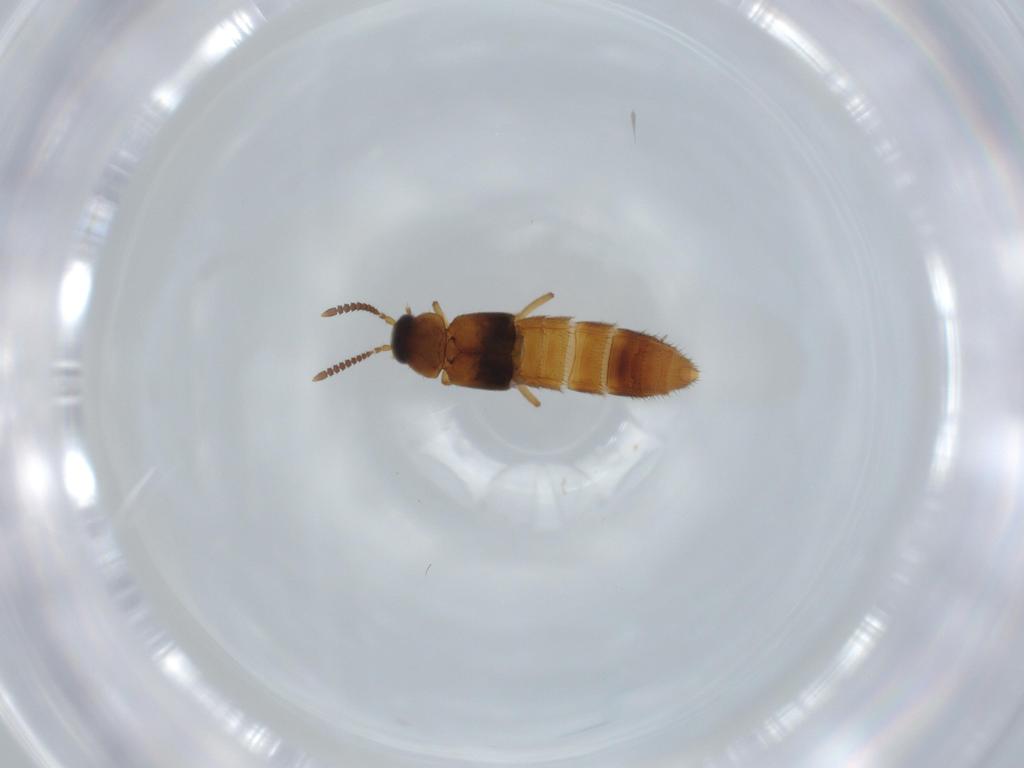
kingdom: Animalia
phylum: Arthropoda
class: Insecta
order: Coleoptera
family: Staphylinidae
